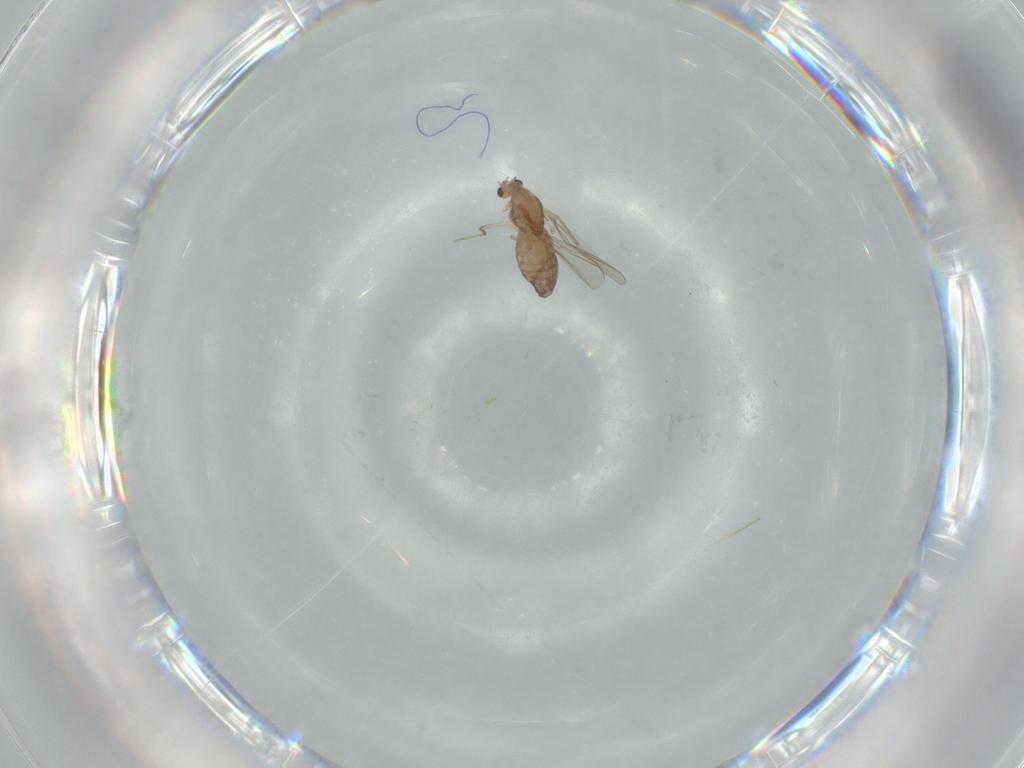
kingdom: Animalia
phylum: Arthropoda
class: Insecta
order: Diptera
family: Chironomidae
